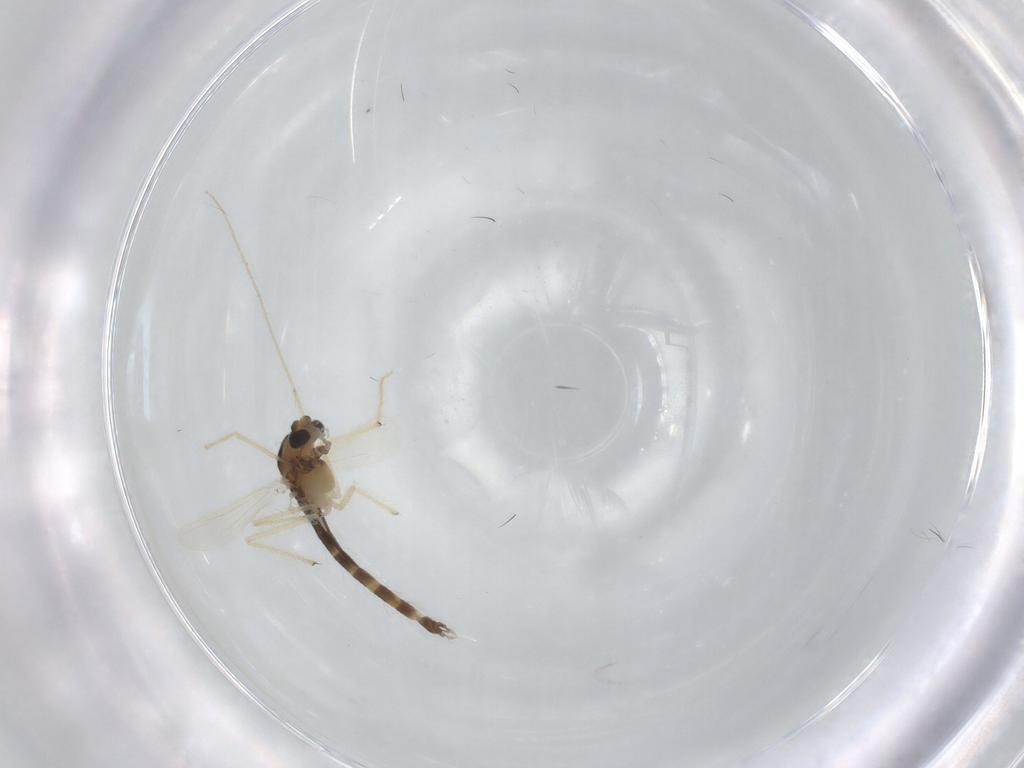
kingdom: Animalia
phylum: Arthropoda
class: Insecta
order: Diptera
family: Chironomidae
